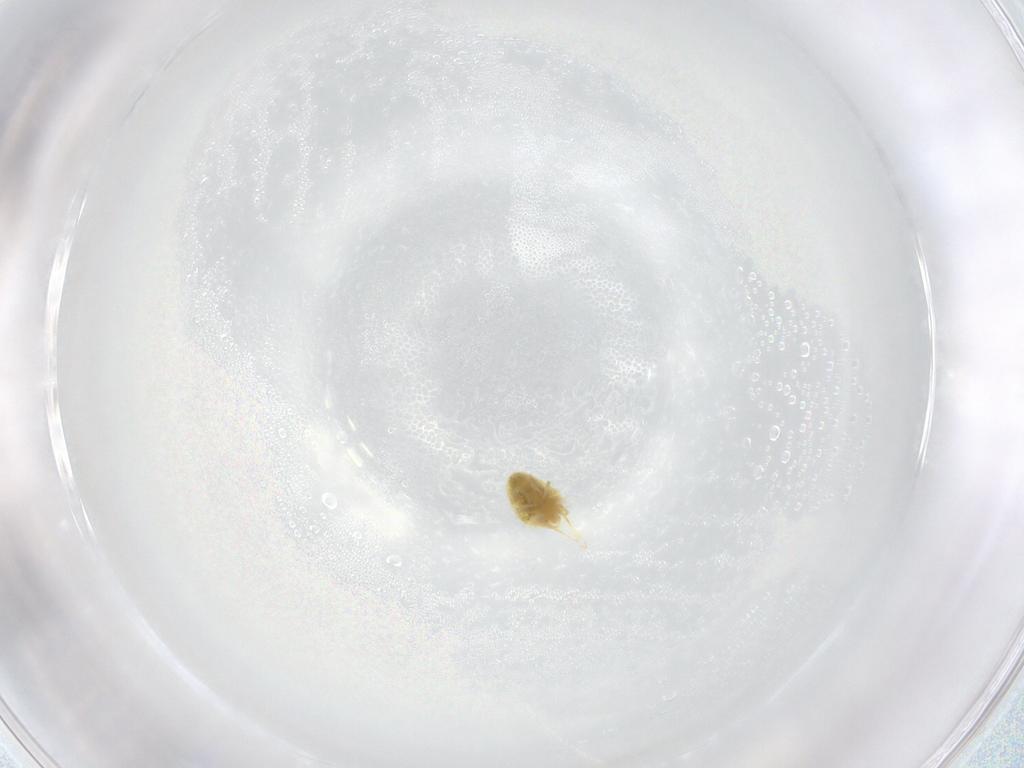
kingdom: Animalia
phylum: Arthropoda
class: Arachnida
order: Trombidiformes
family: Tetranychidae
